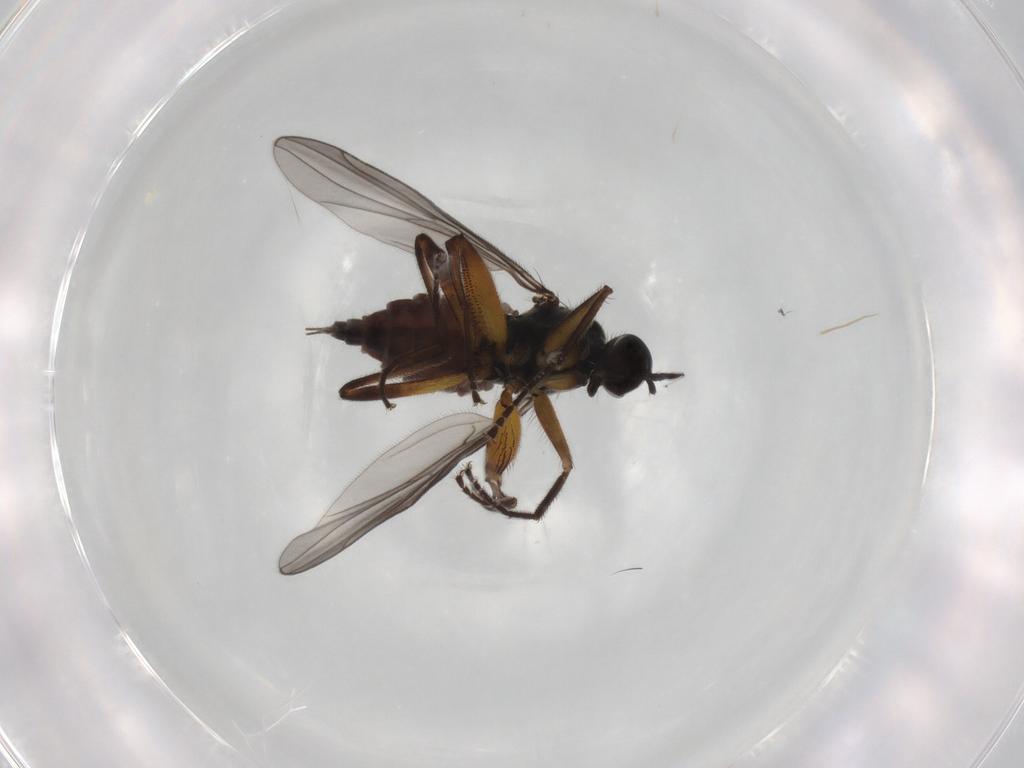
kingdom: Animalia
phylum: Arthropoda
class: Insecta
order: Diptera
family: Sciaridae
